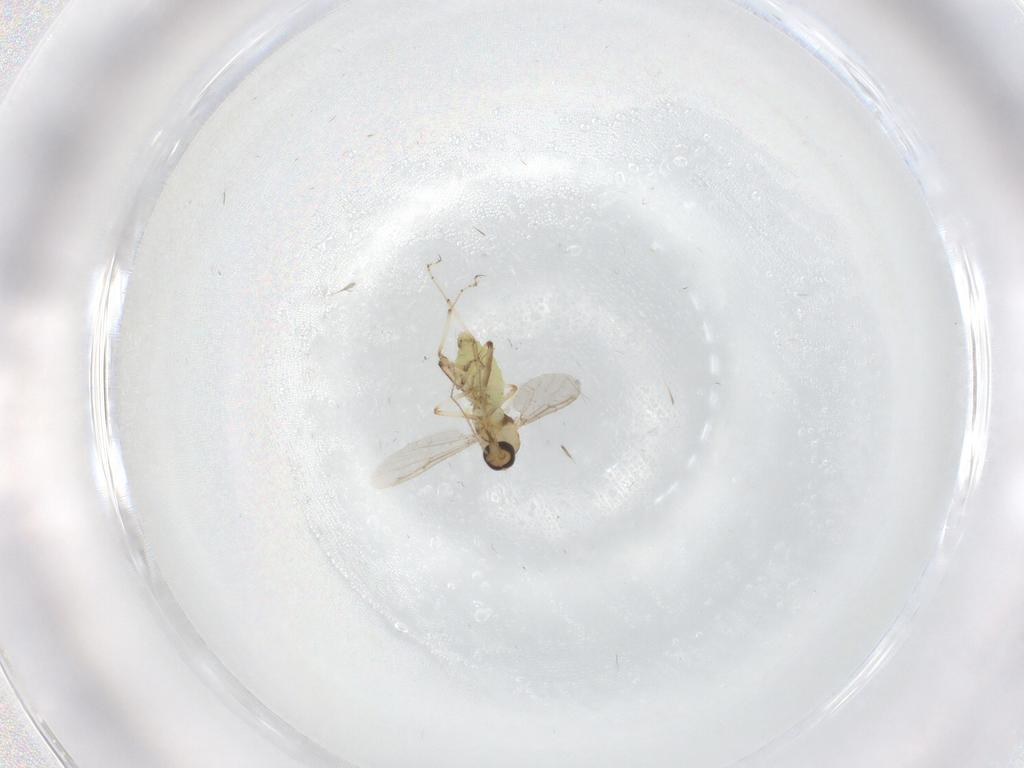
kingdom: Animalia
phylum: Arthropoda
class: Insecta
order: Diptera
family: Ceratopogonidae
